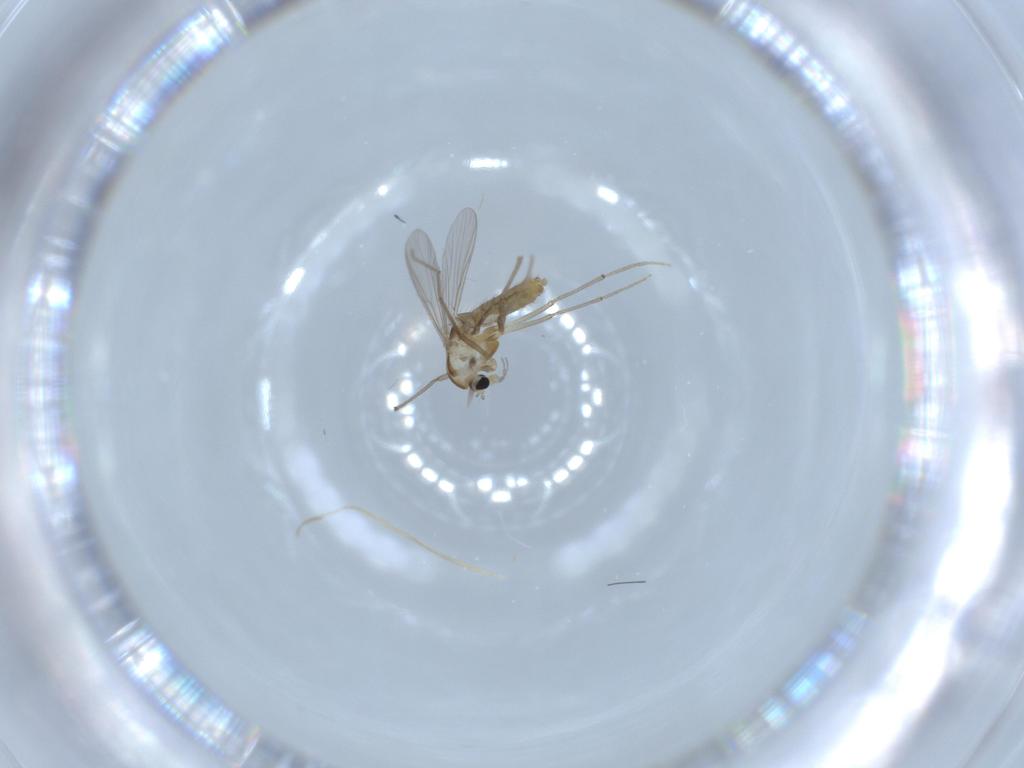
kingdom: Animalia
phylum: Arthropoda
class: Insecta
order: Diptera
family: Chironomidae
